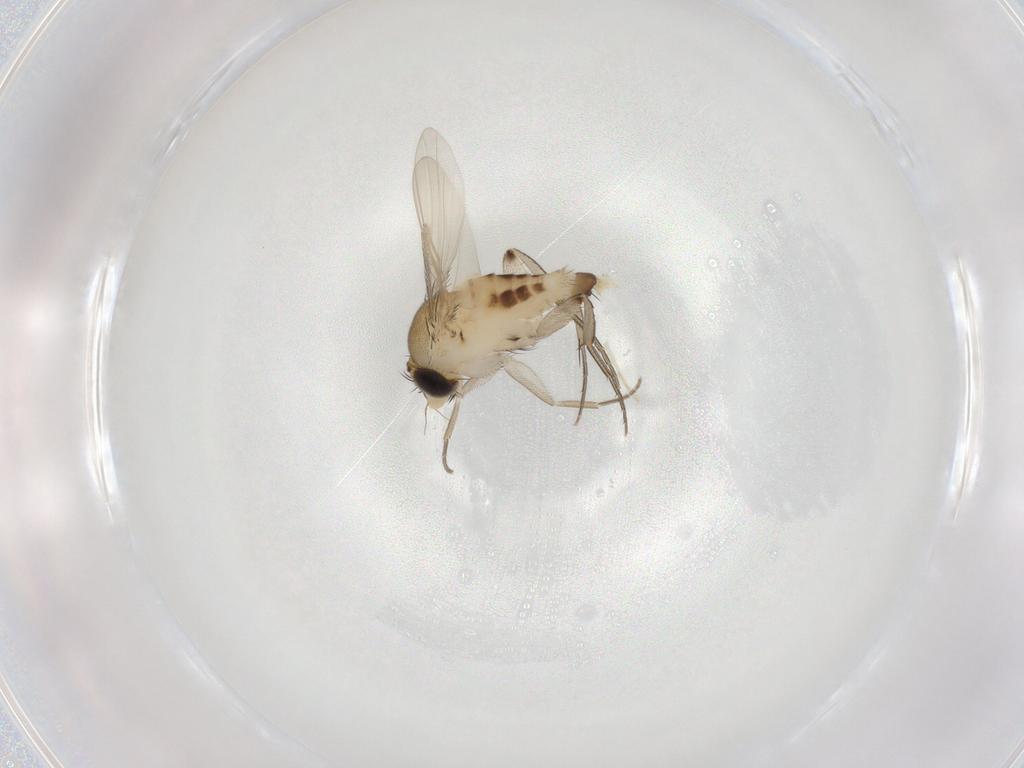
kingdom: Animalia
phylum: Arthropoda
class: Insecta
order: Diptera
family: Phoridae
